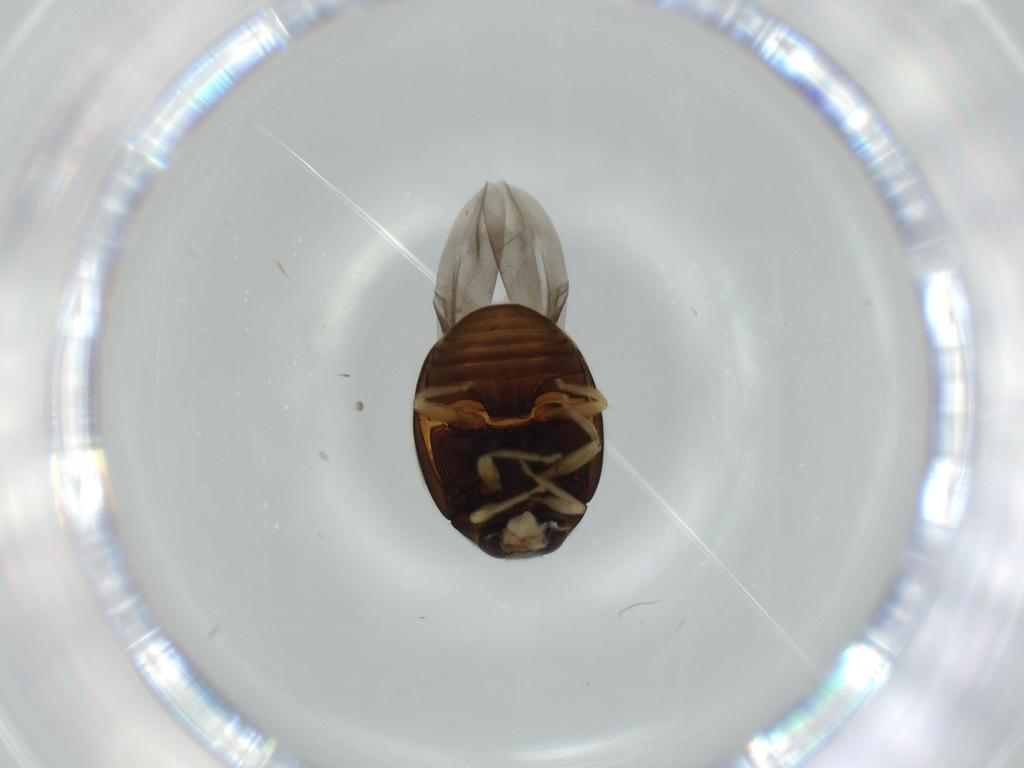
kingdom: Animalia
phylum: Arthropoda
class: Insecta
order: Coleoptera
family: Coccinellidae
